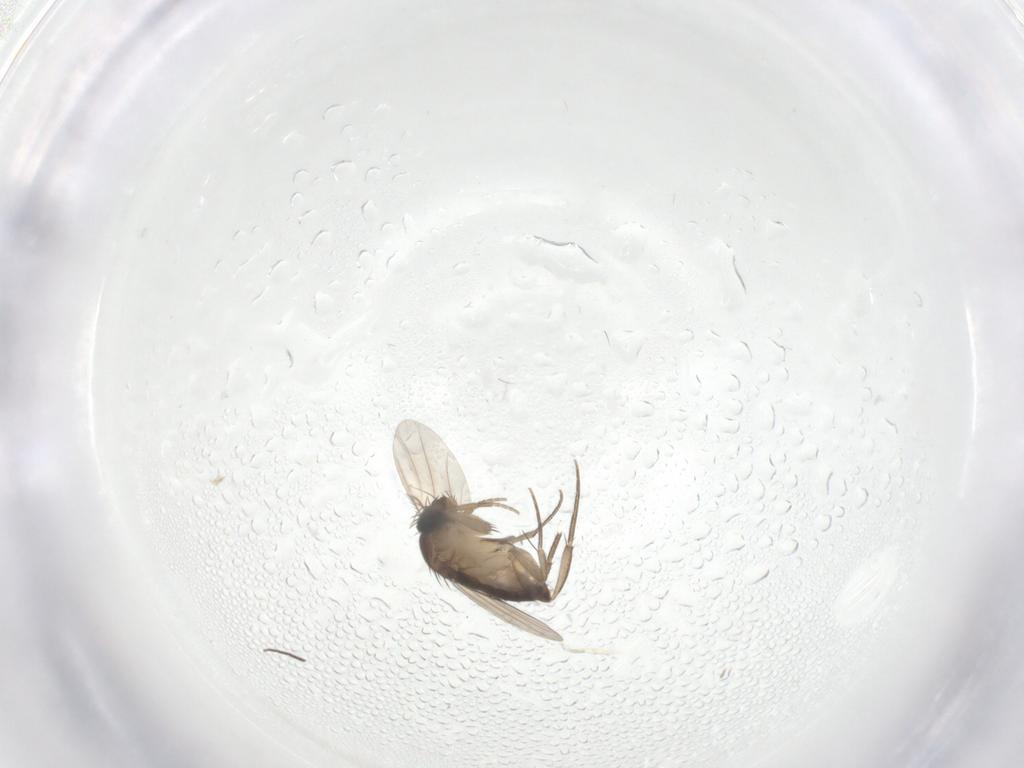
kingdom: Animalia
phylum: Arthropoda
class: Insecta
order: Diptera
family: Phoridae
